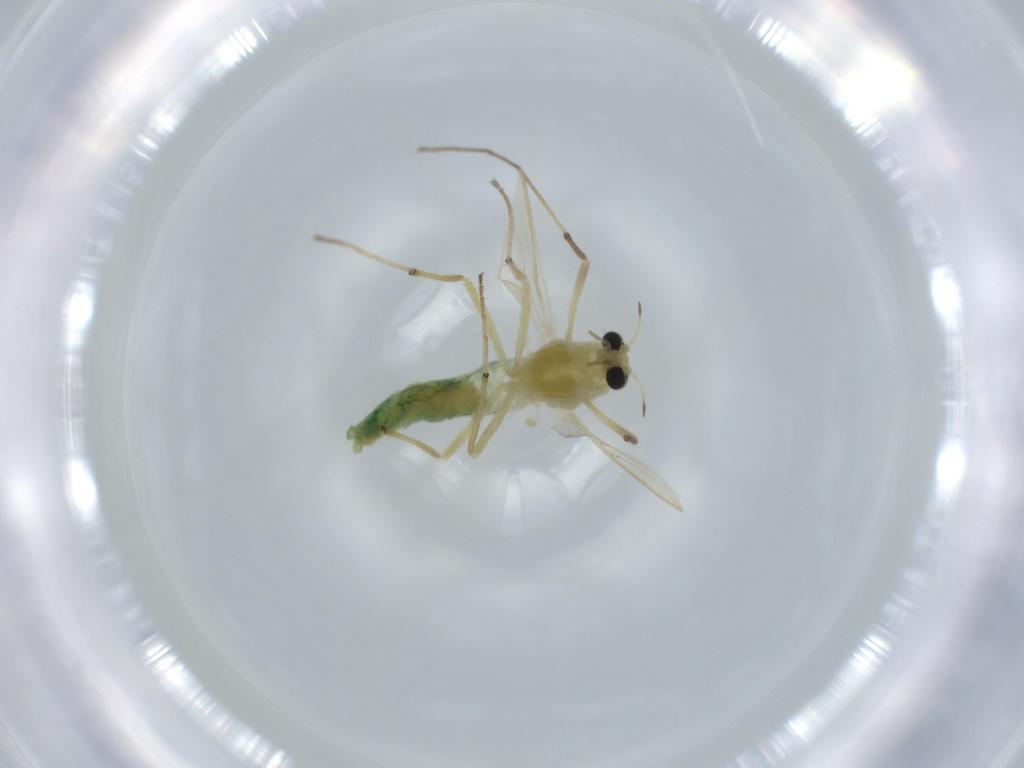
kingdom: Animalia
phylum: Arthropoda
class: Insecta
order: Diptera
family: Chironomidae
